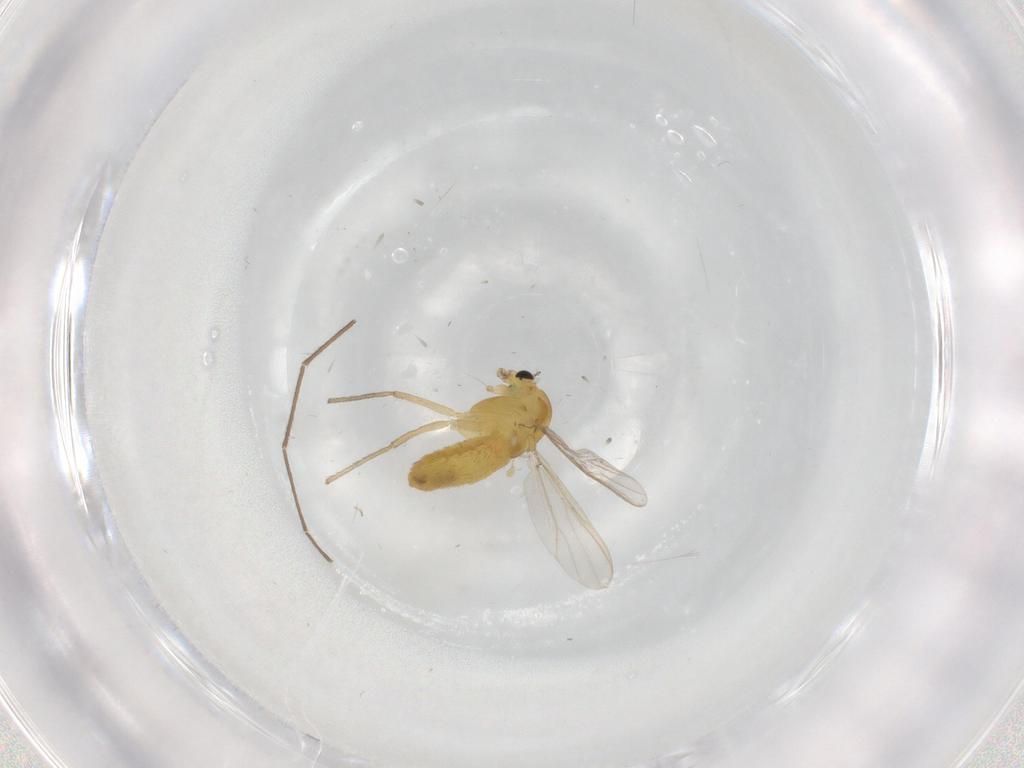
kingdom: Animalia
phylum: Arthropoda
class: Insecta
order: Diptera
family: Chironomidae
